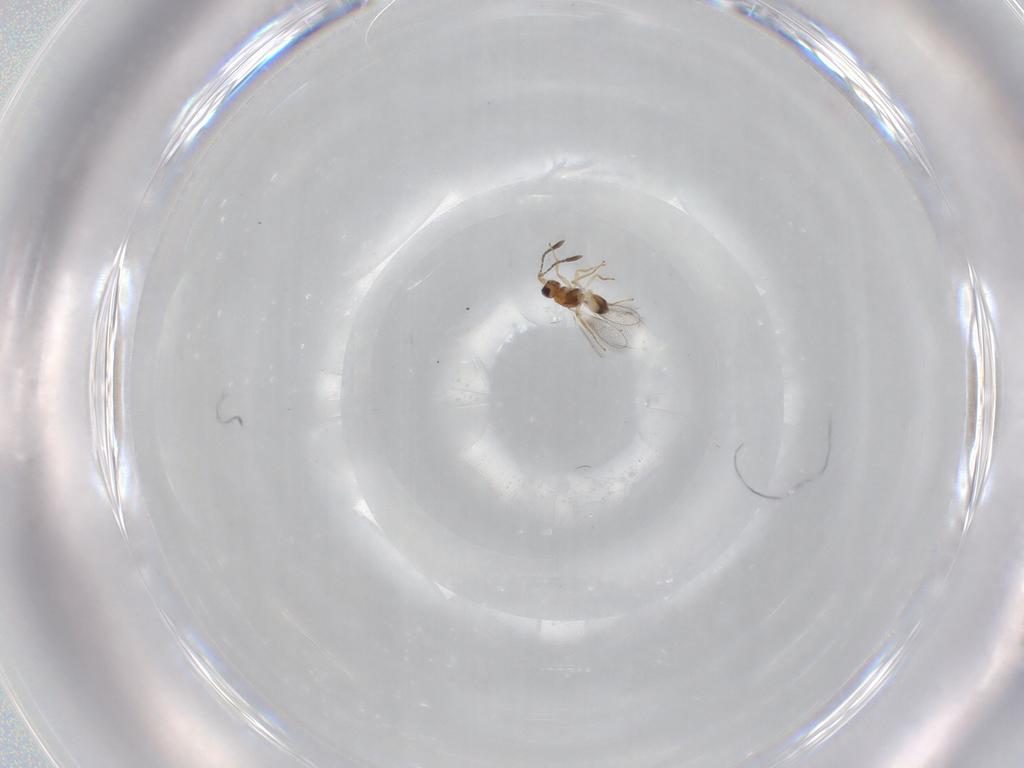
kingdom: Animalia
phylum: Arthropoda
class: Insecta
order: Hymenoptera
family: Mymaridae
